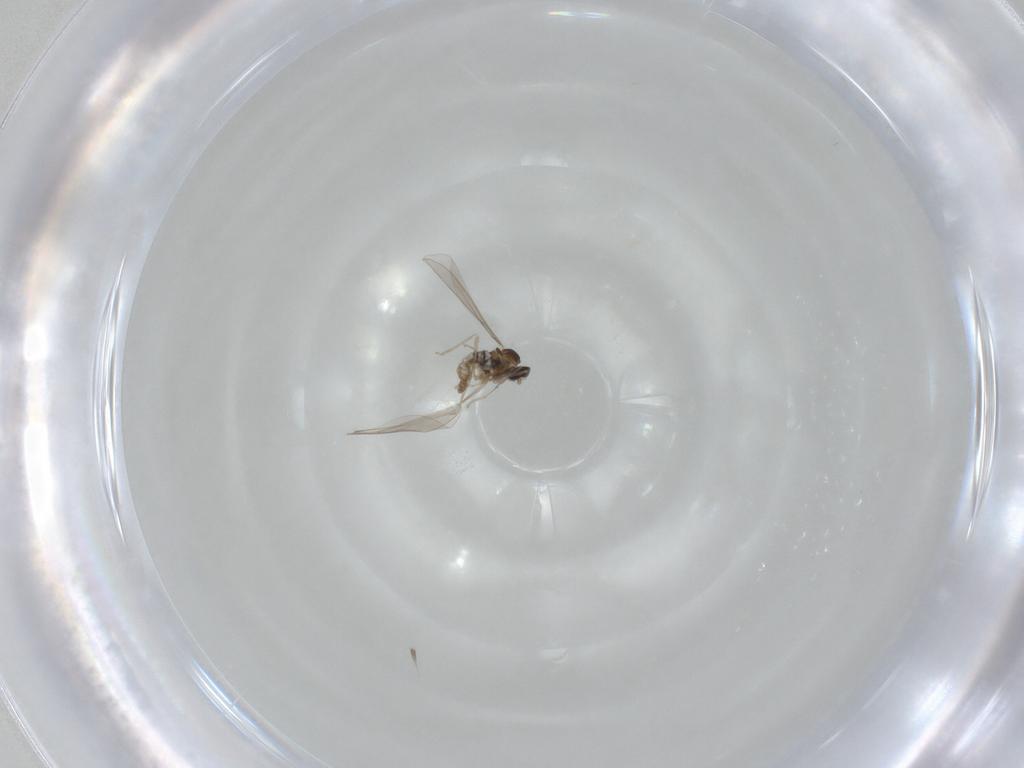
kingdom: Animalia
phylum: Arthropoda
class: Insecta
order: Diptera
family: Cecidomyiidae
